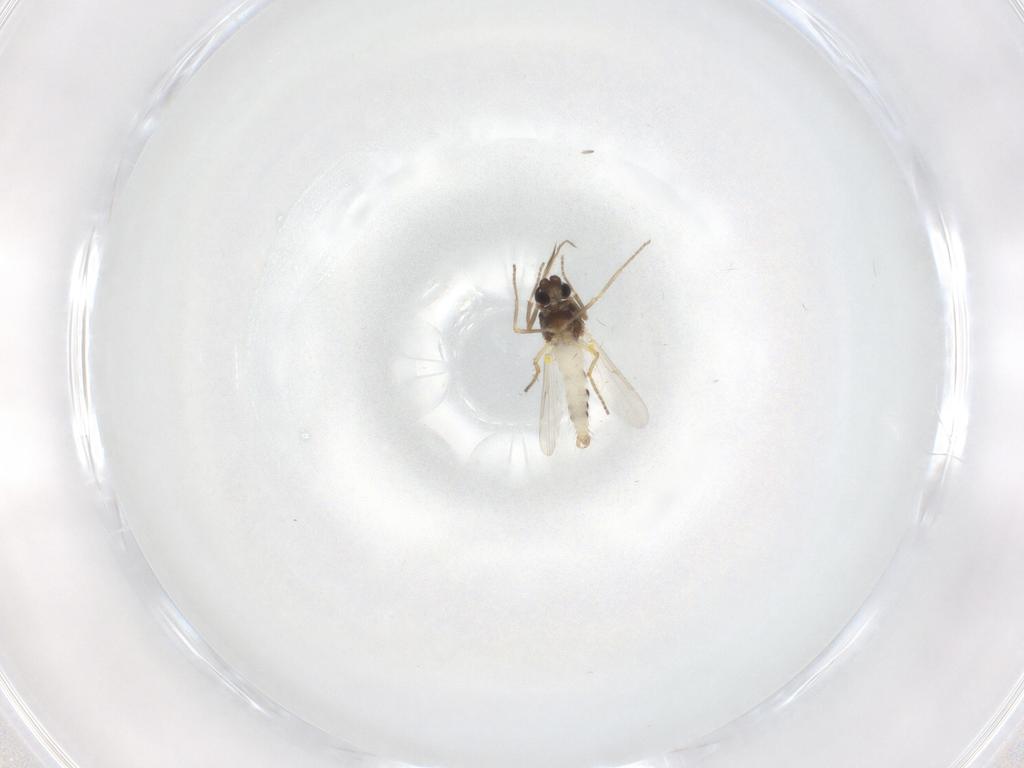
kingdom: Animalia
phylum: Arthropoda
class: Insecta
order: Diptera
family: Ceratopogonidae
